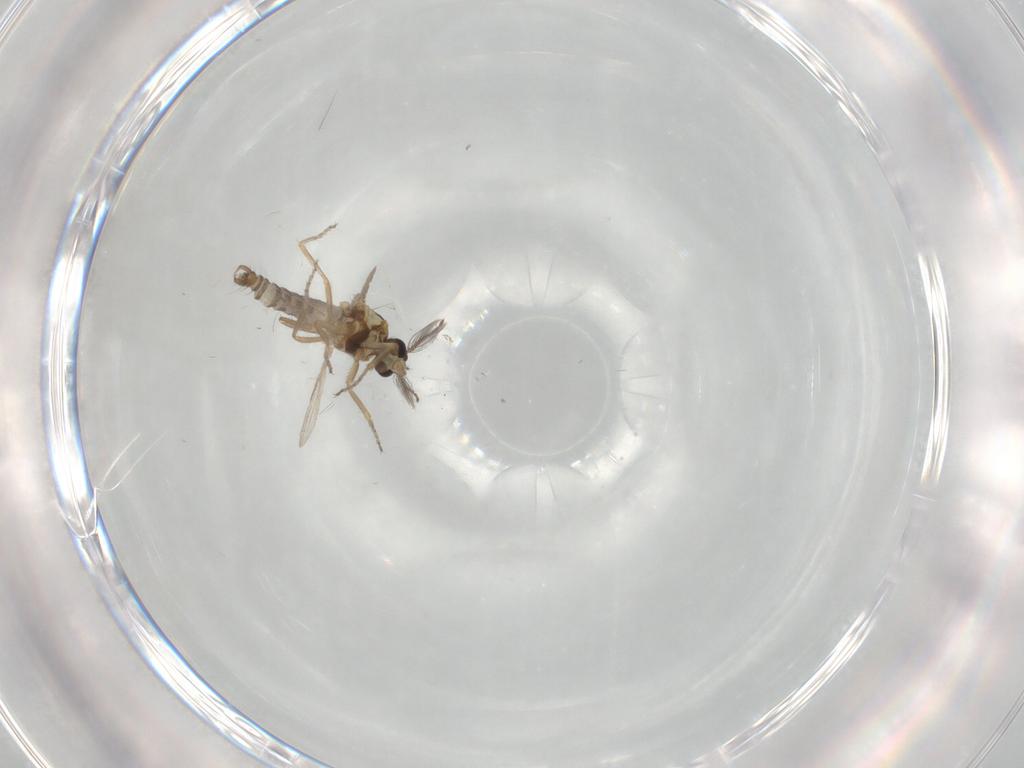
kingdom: Animalia
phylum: Arthropoda
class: Insecta
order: Diptera
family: Ceratopogonidae
